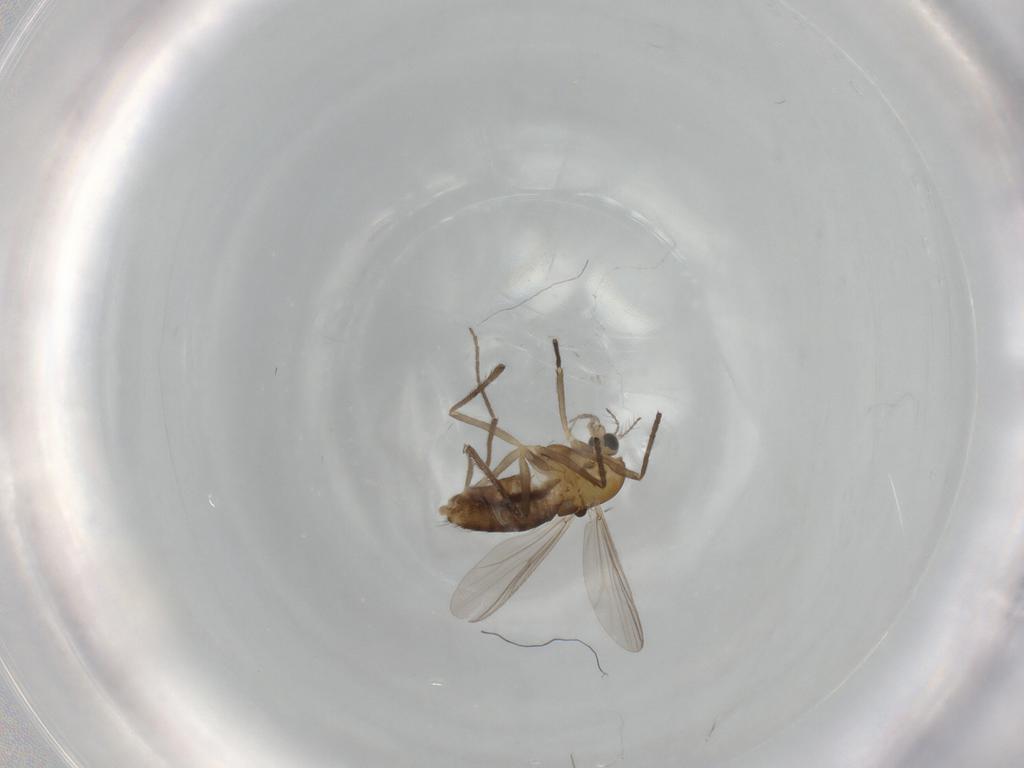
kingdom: Animalia
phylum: Arthropoda
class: Insecta
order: Diptera
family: Chironomidae
